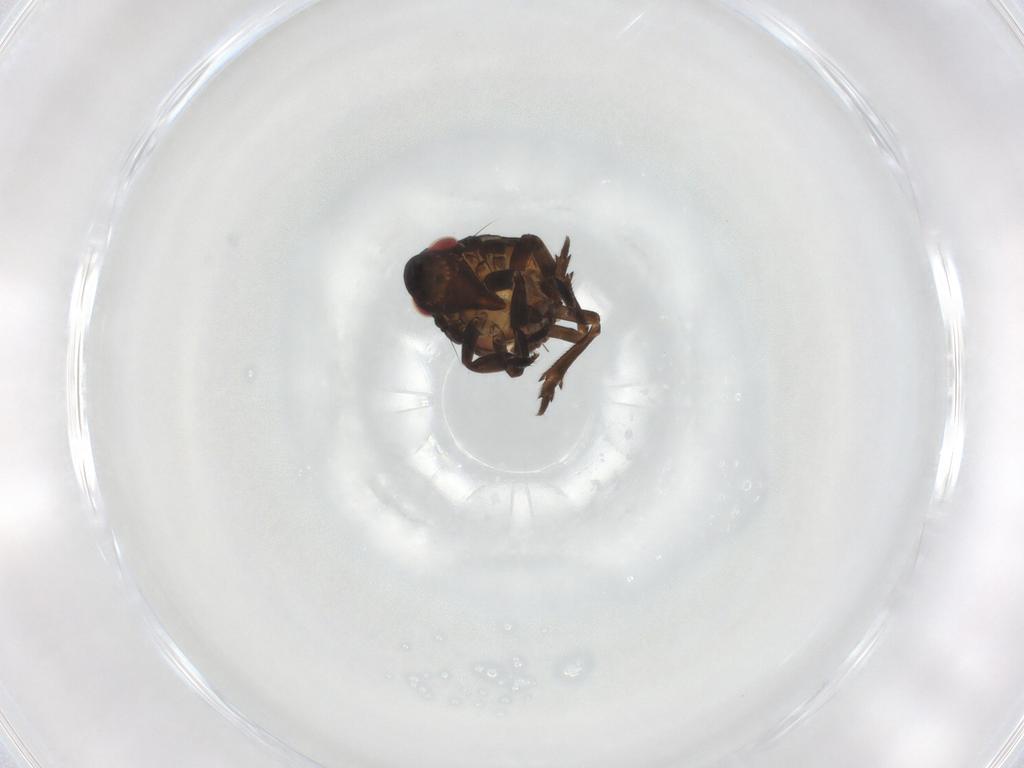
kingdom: Animalia
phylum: Arthropoda
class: Insecta
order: Hemiptera
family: Fulgoroidea_incertae_sedis
